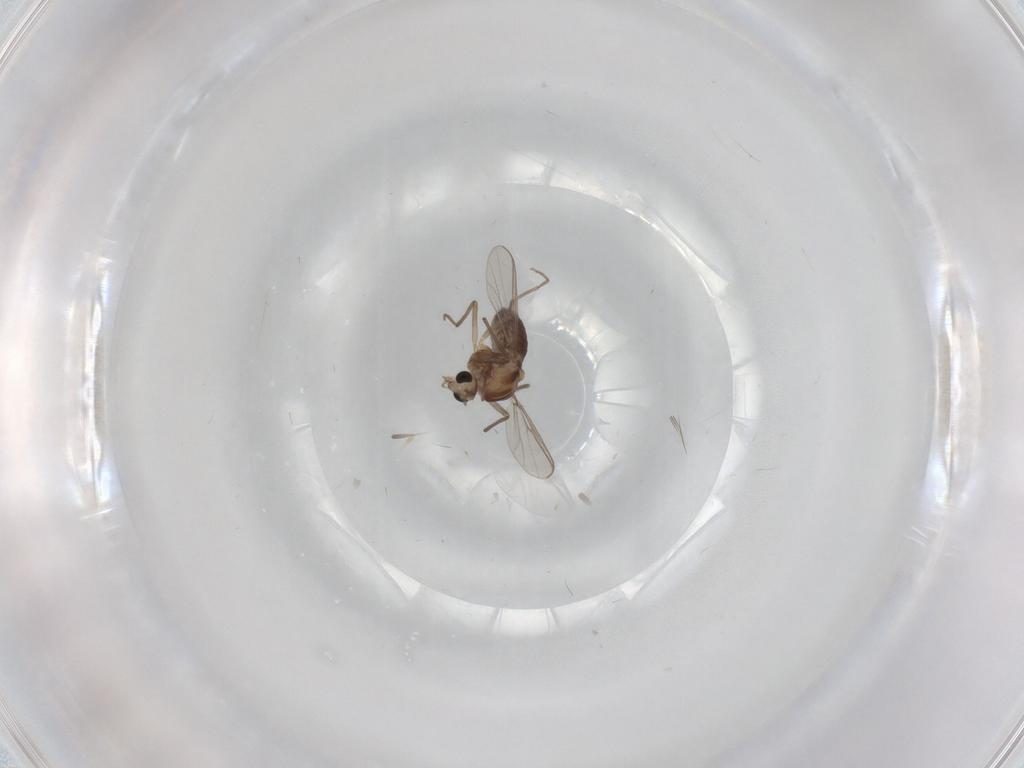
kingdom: Animalia
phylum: Arthropoda
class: Insecta
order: Diptera
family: Chironomidae
